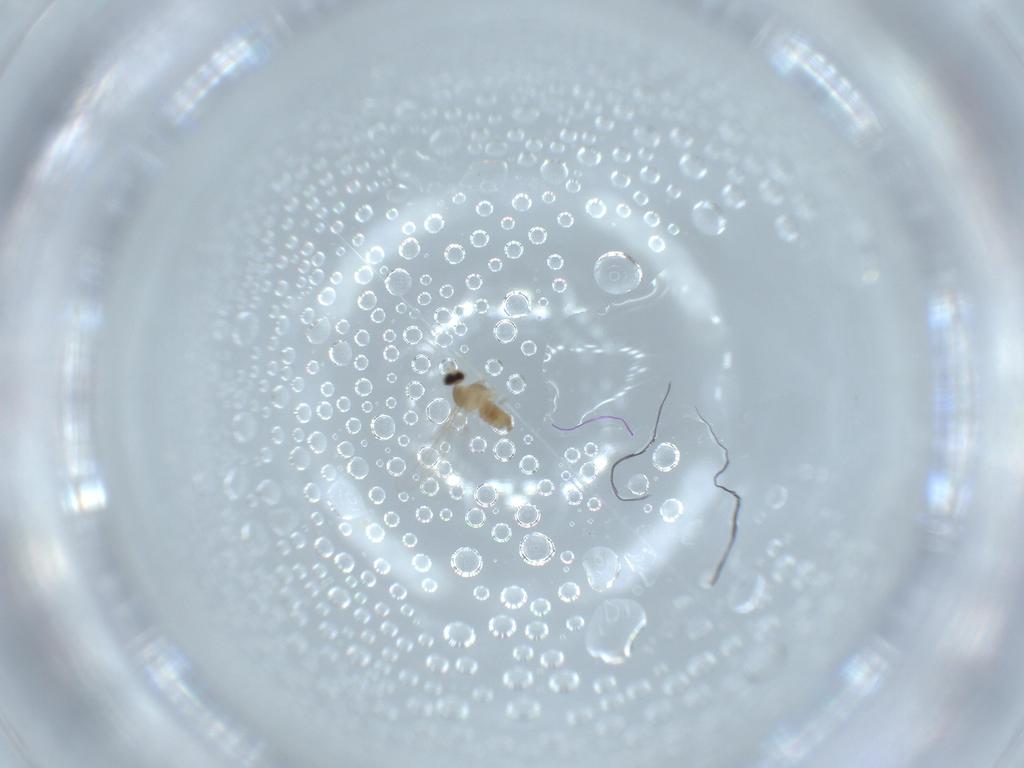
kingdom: Animalia
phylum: Arthropoda
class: Insecta
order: Diptera
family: Cecidomyiidae
